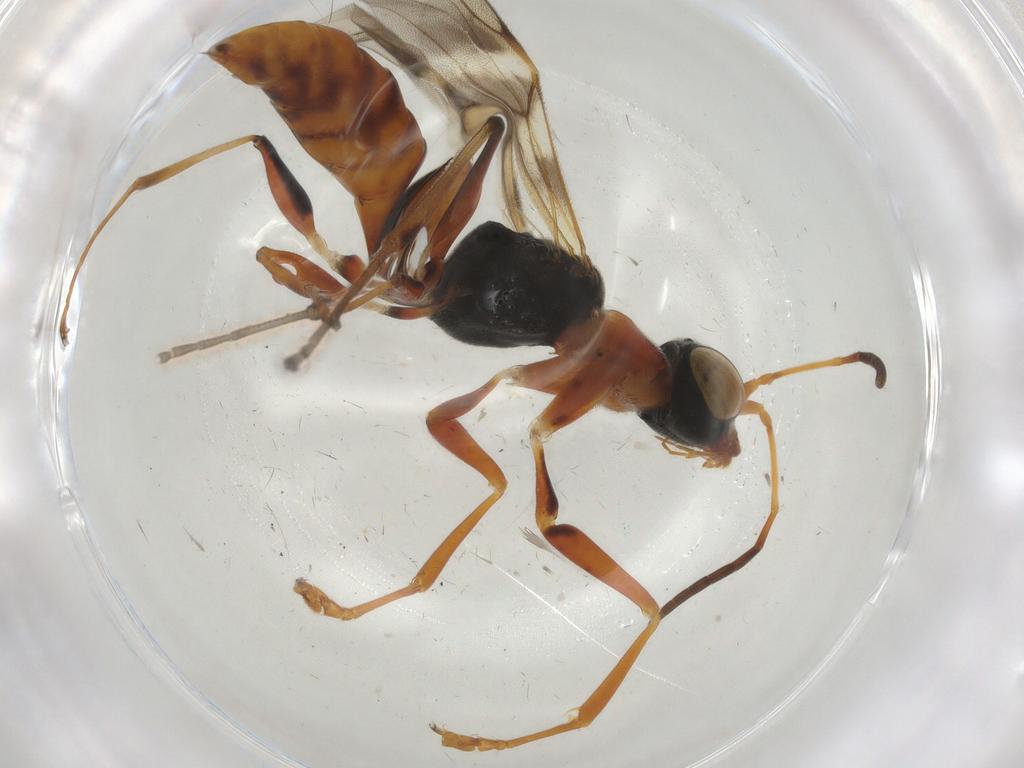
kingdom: Animalia
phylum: Arthropoda
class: Insecta
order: Hymenoptera
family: Dryinidae
